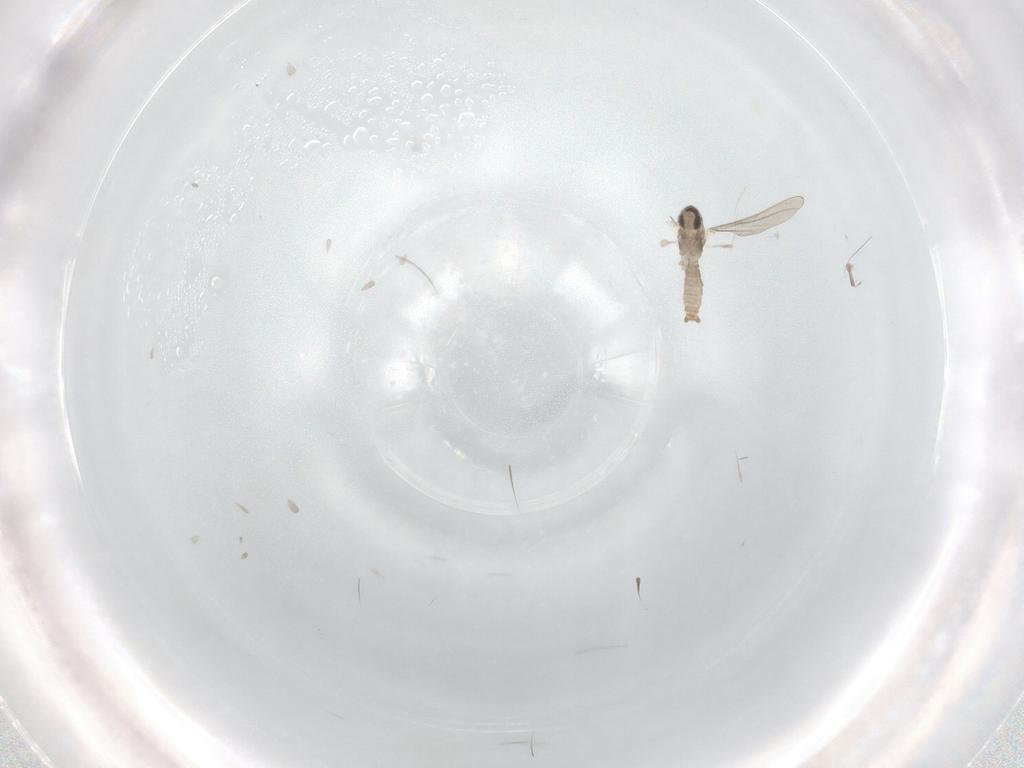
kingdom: Animalia
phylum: Arthropoda
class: Insecta
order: Diptera
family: Cecidomyiidae
